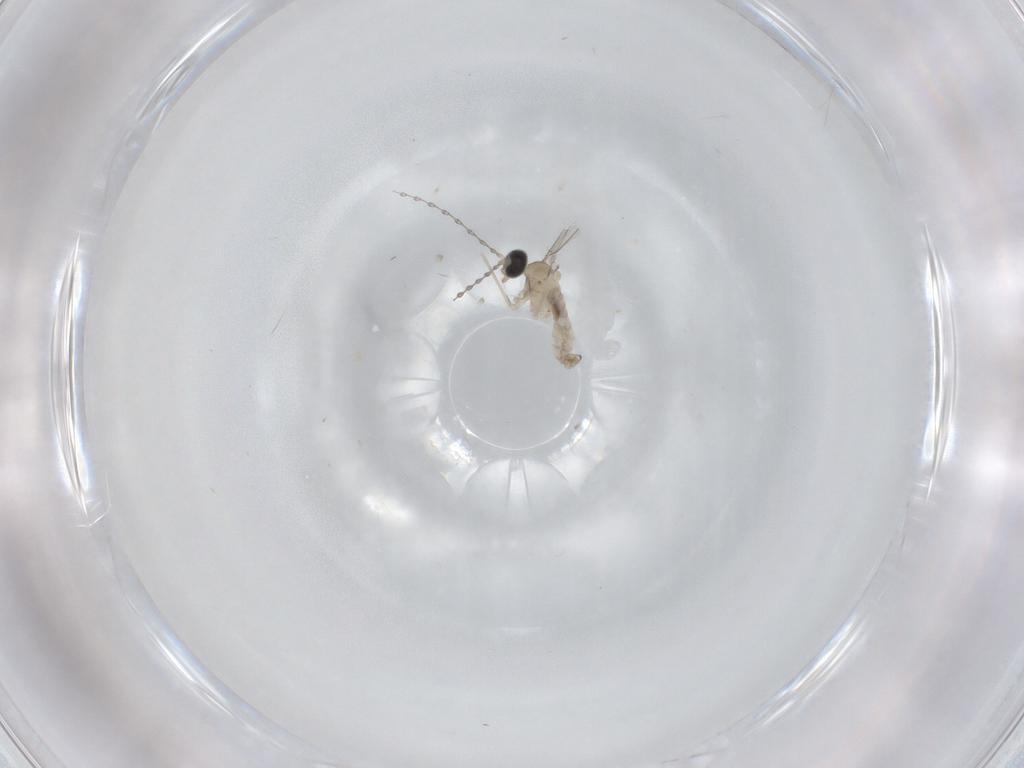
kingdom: Animalia
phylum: Arthropoda
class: Insecta
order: Diptera
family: Cecidomyiidae
